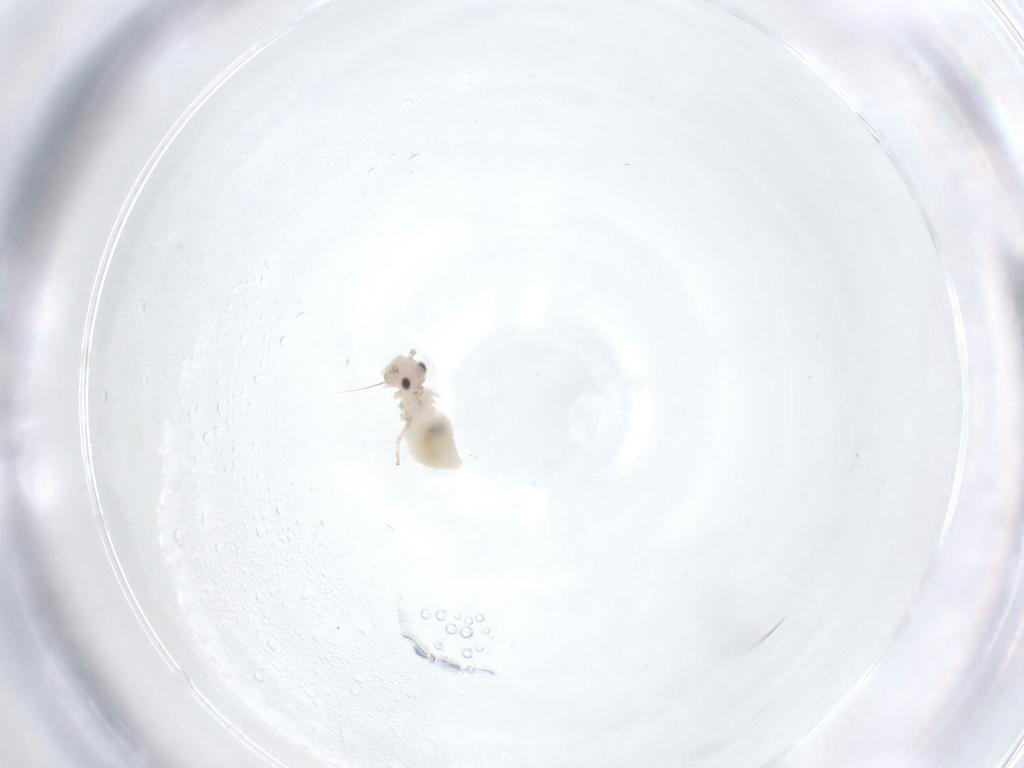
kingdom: Animalia
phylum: Arthropoda
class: Insecta
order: Psocodea
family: Stenopsocidae
